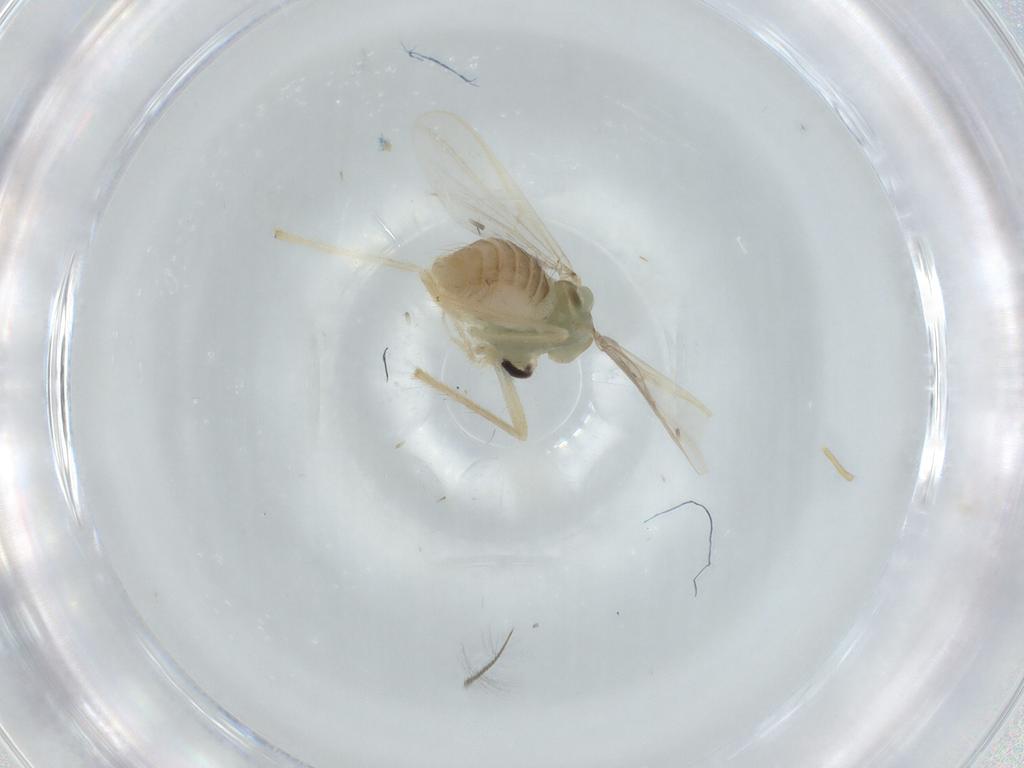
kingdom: Animalia
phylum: Arthropoda
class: Insecta
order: Diptera
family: Chironomidae
